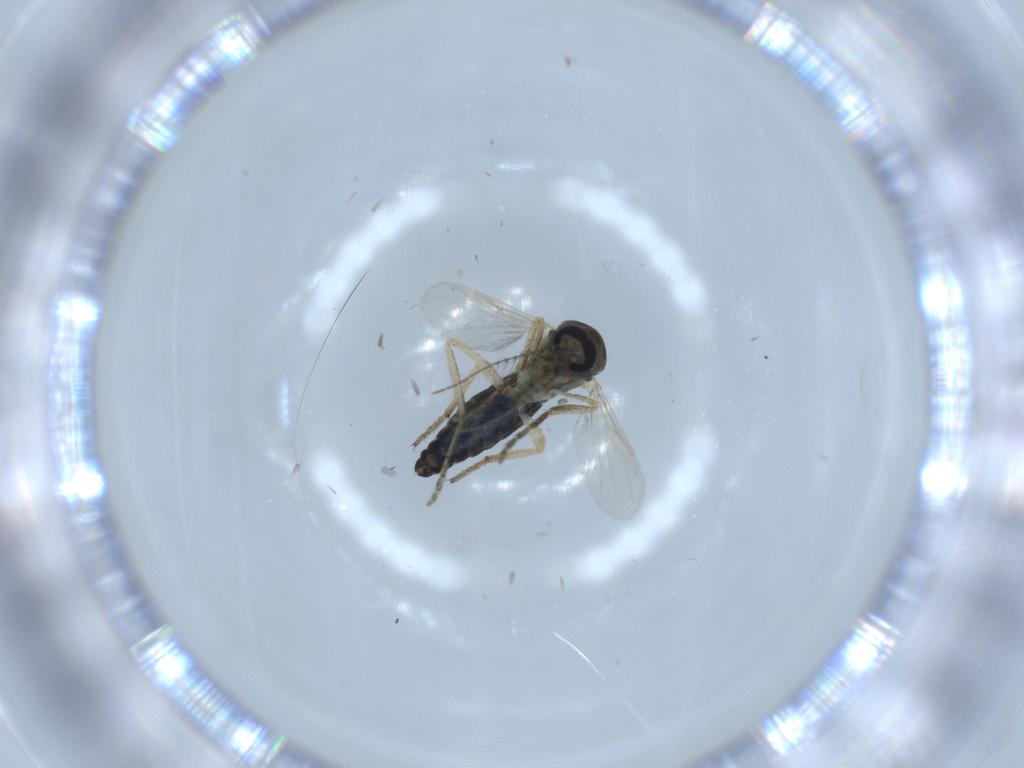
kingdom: Animalia
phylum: Arthropoda
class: Insecta
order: Diptera
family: Ceratopogonidae
